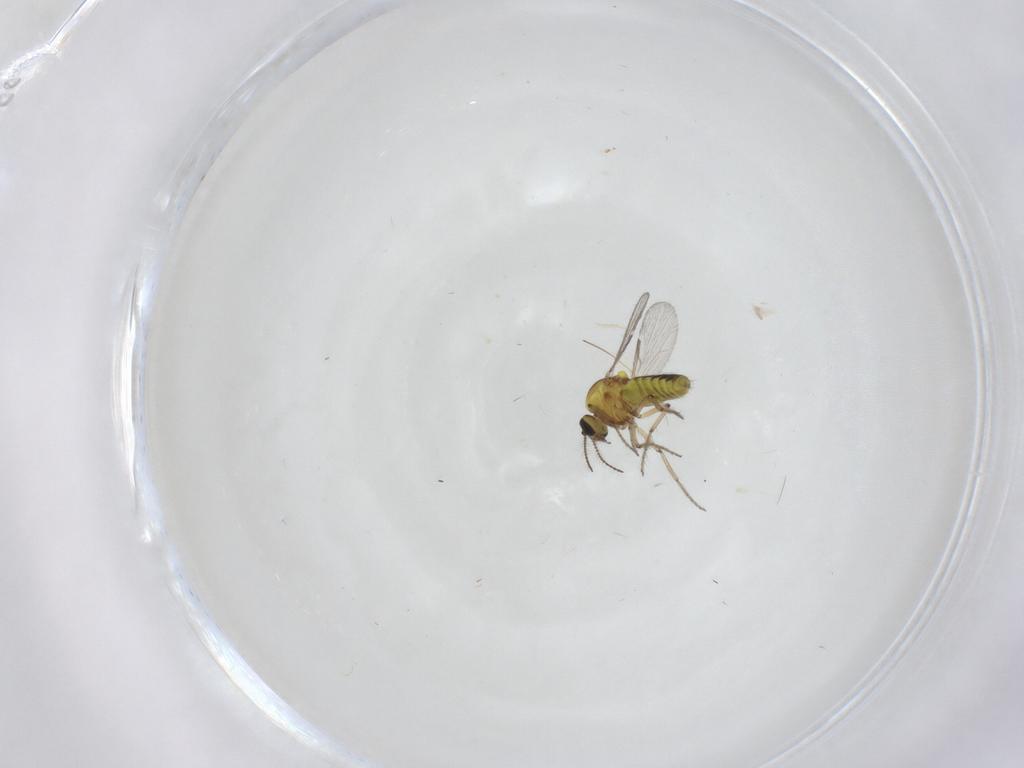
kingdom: Animalia
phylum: Arthropoda
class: Insecta
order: Diptera
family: Ceratopogonidae
